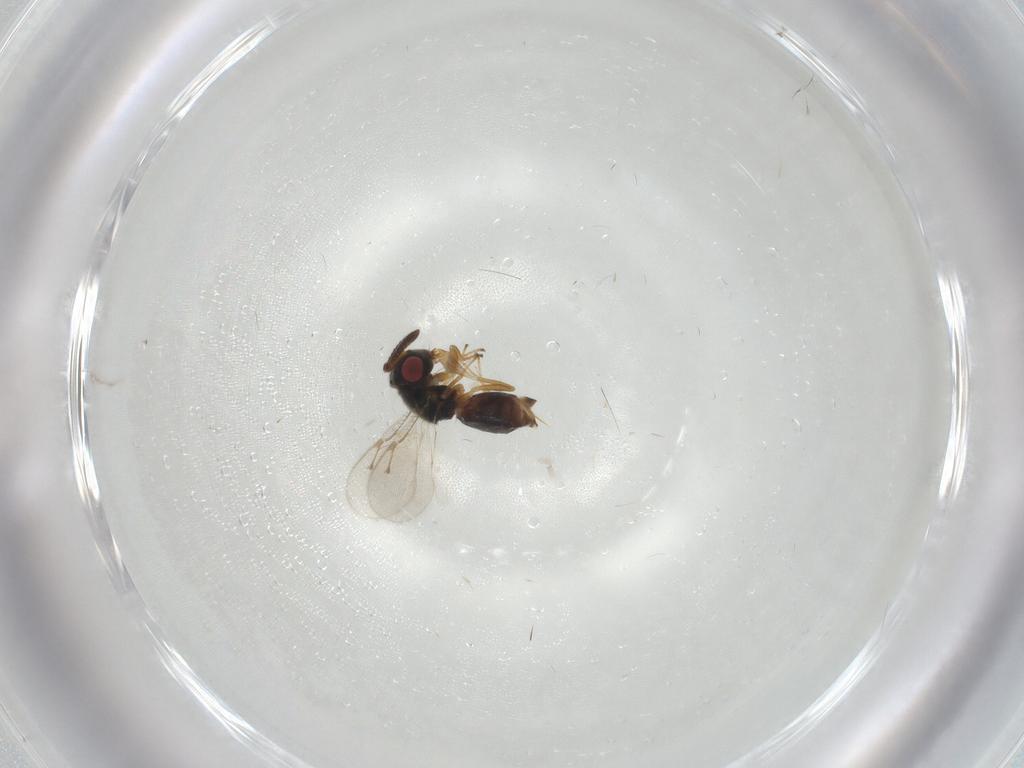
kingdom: Animalia
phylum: Arthropoda
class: Insecta
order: Hymenoptera
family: Pteromalidae
